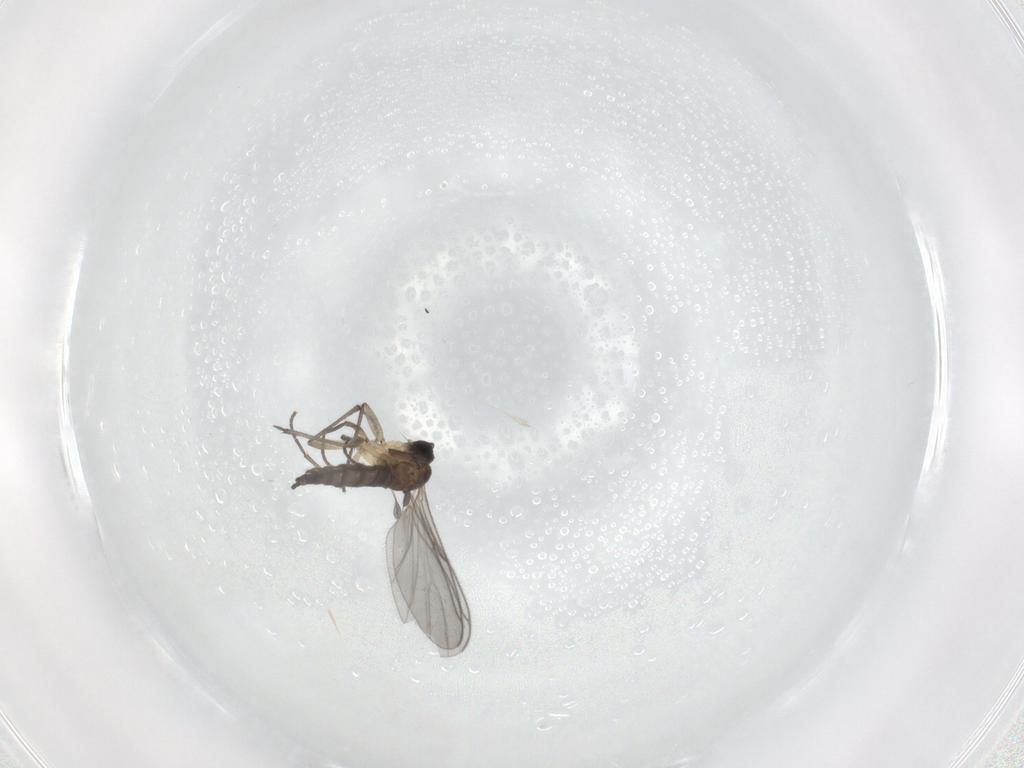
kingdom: Animalia
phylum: Arthropoda
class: Insecta
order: Diptera
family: Sciaridae
